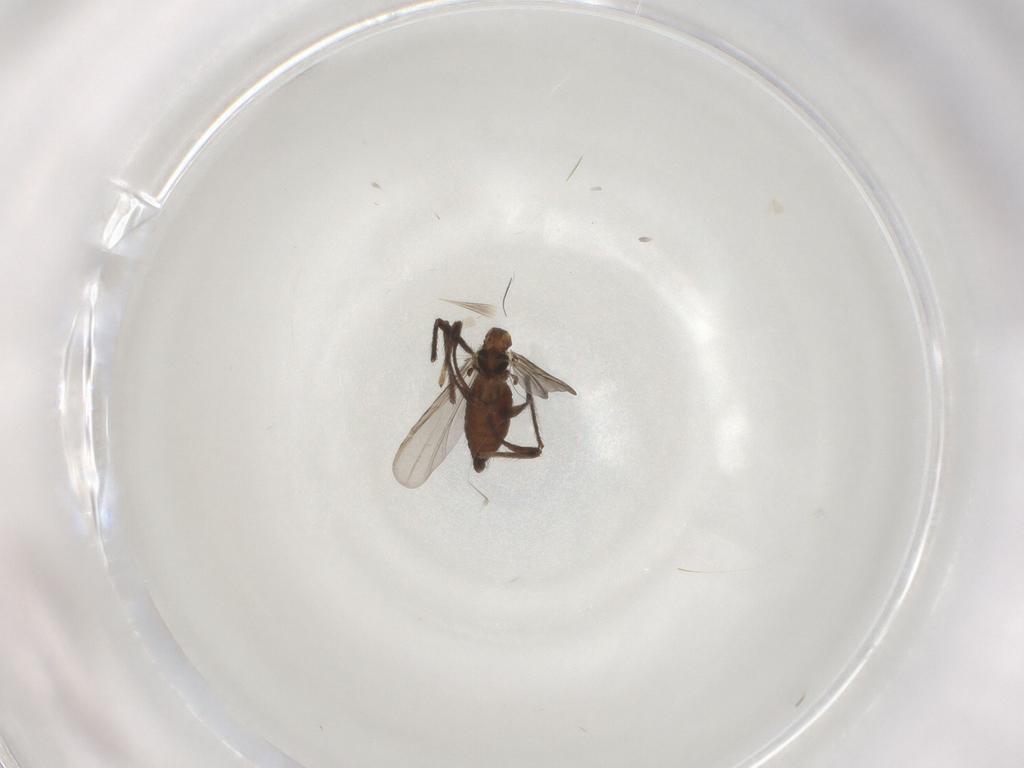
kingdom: Animalia
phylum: Arthropoda
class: Insecta
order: Diptera
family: Chironomidae
